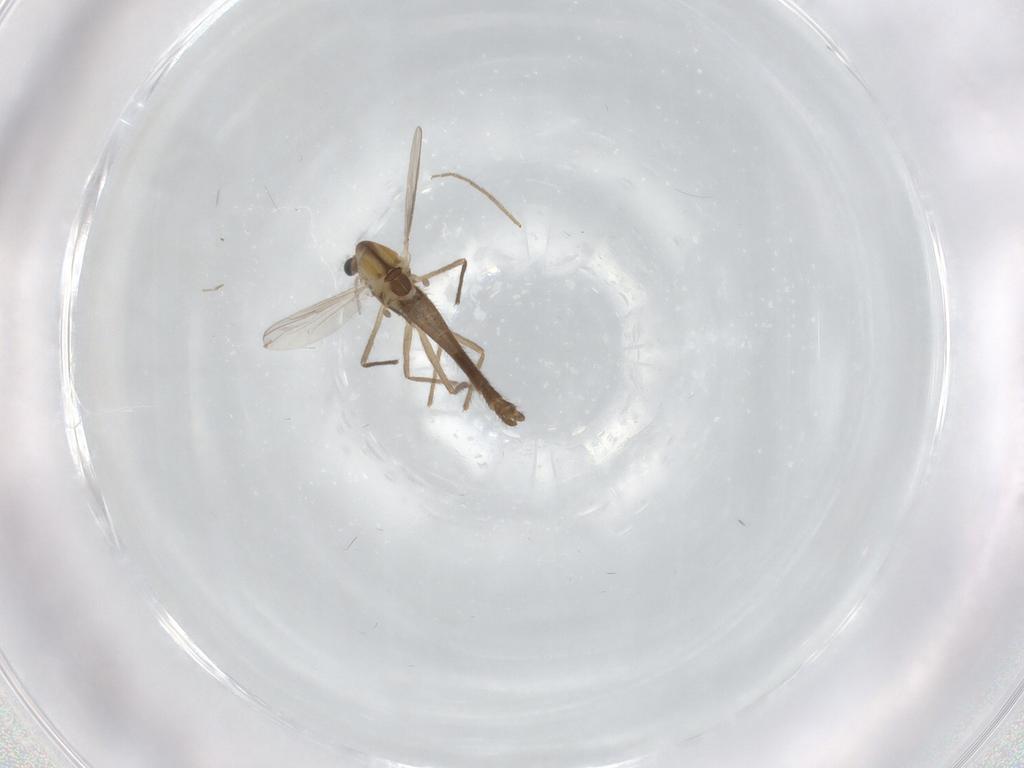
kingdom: Animalia
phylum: Arthropoda
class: Insecta
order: Diptera
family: Chironomidae
